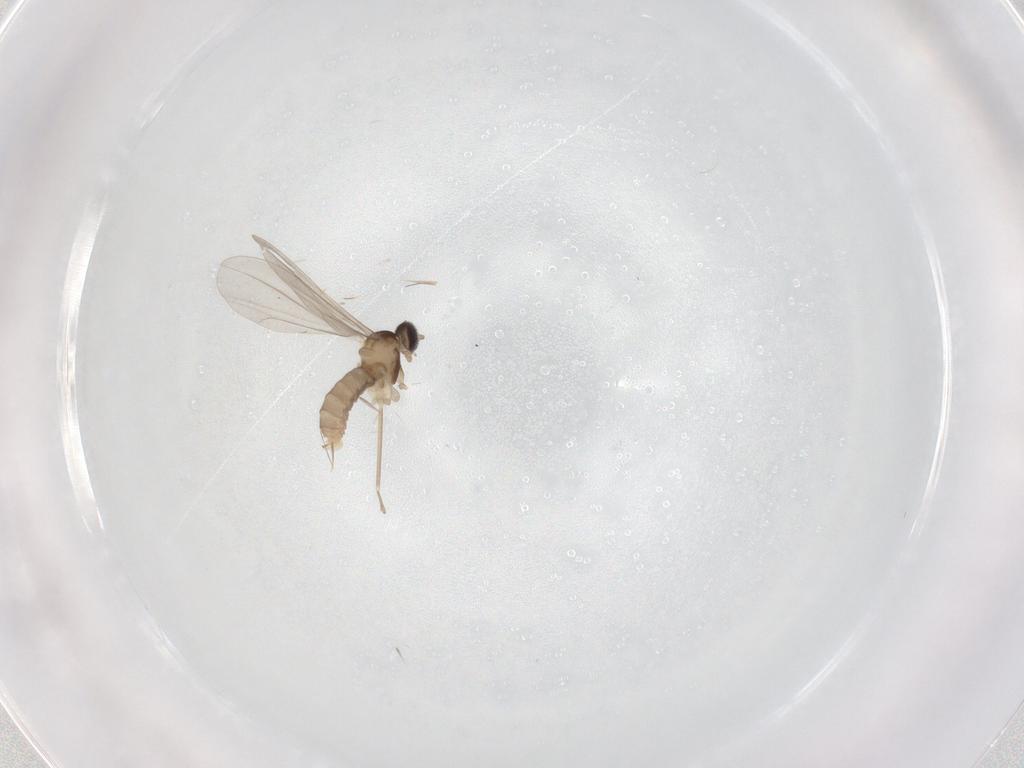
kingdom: Animalia
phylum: Arthropoda
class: Insecta
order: Diptera
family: Cecidomyiidae
